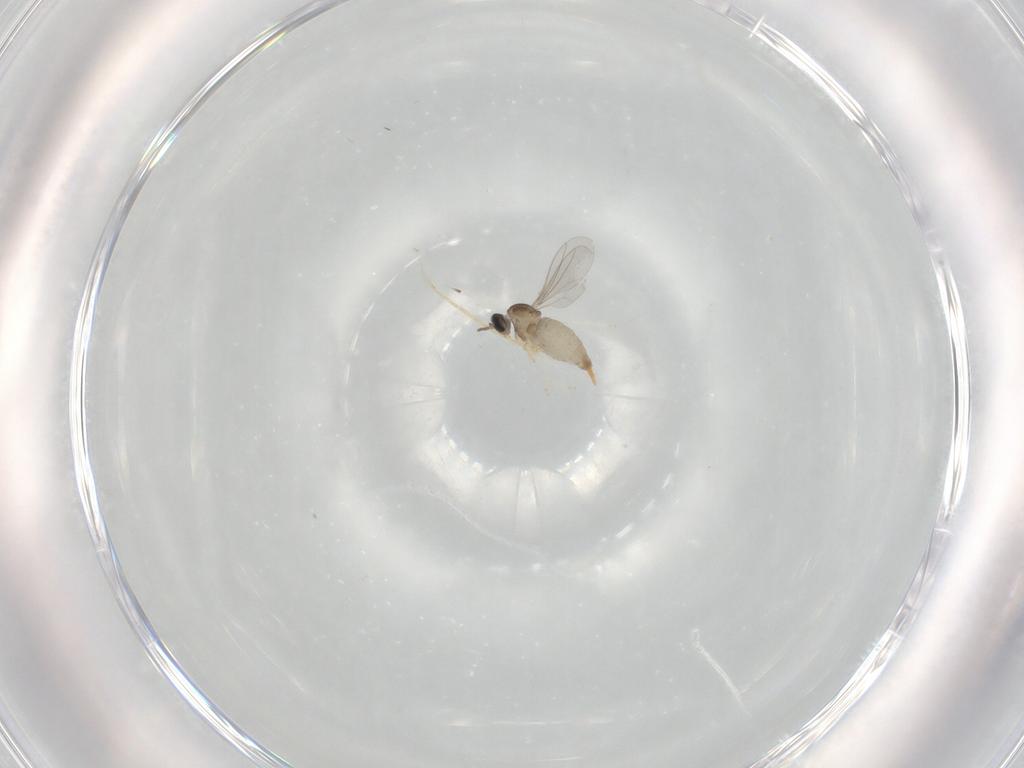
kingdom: Animalia
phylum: Arthropoda
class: Insecta
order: Diptera
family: Cecidomyiidae
